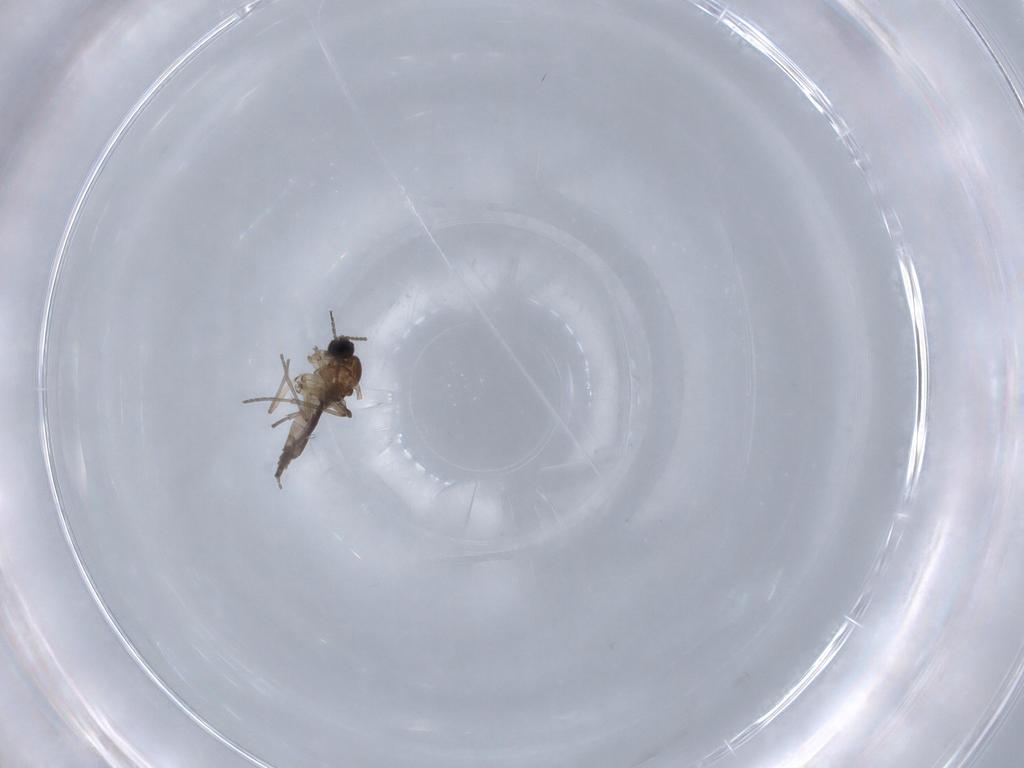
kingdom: Animalia
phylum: Arthropoda
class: Insecta
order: Diptera
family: Sciaridae
